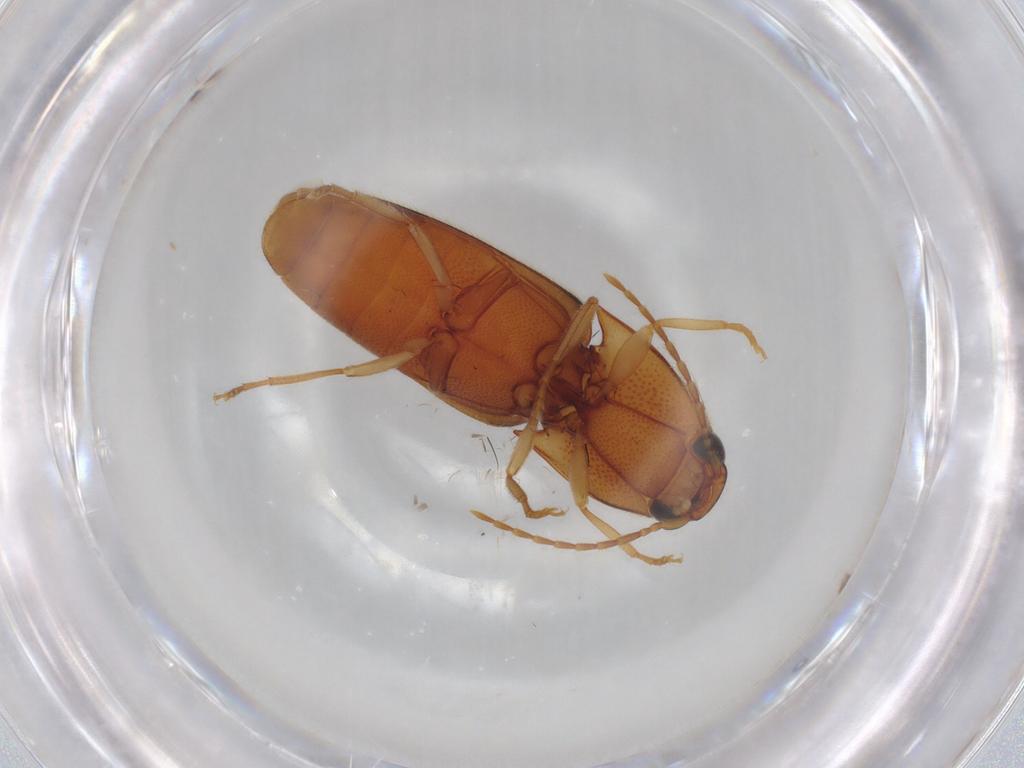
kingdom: Animalia
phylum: Arthropoda
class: Insecta
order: Coleoptera
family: Elateridae
